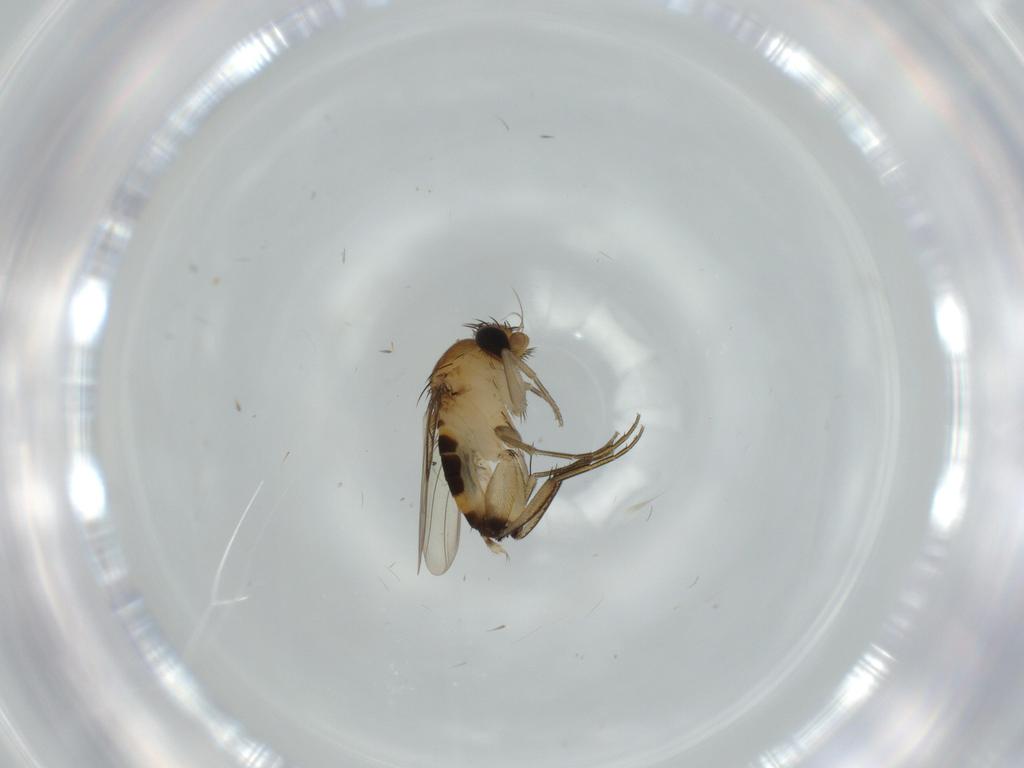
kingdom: Animalia
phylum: Arthropoda
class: Insecta
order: Diptera
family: Phoridae
